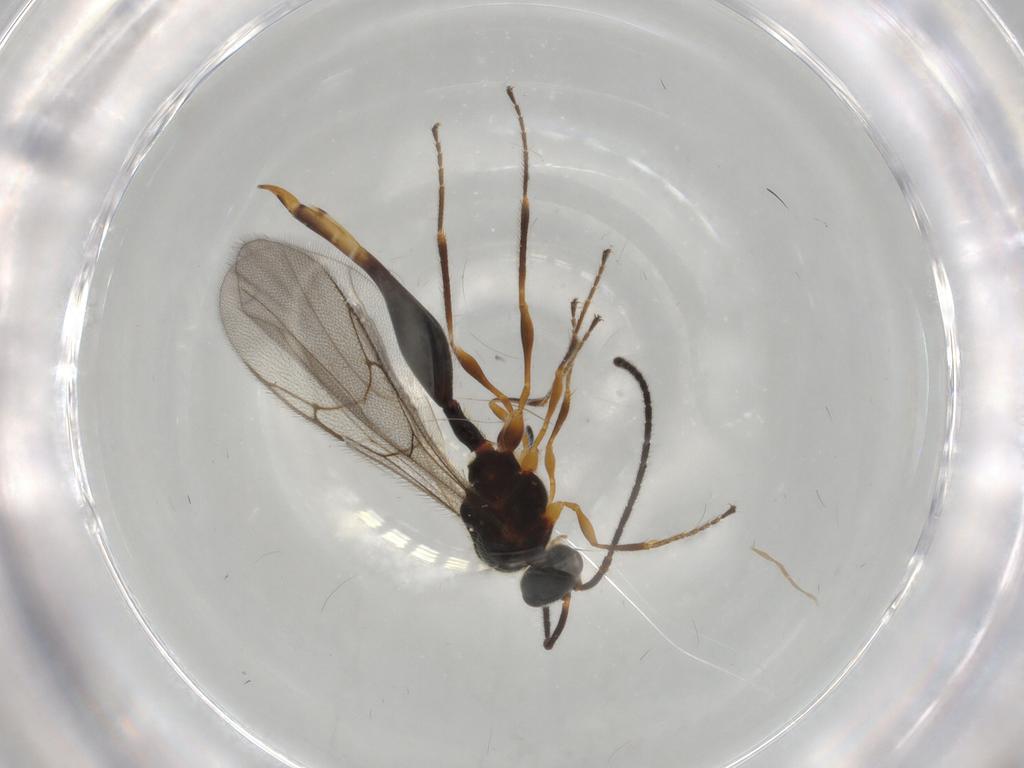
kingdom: Animalia
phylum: Arthropoda
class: Insecta
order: Hymenoptera
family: Diapriidae
